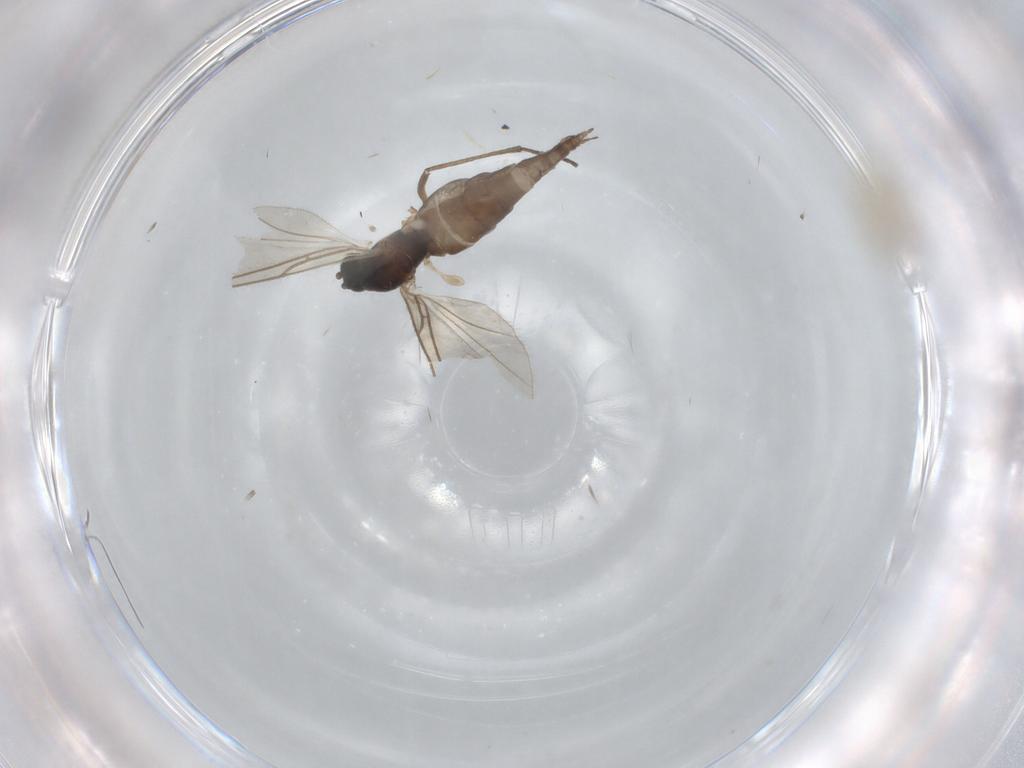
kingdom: Animalia
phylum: Arthropoda
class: Insecta
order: Diptera
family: Cecidomyiidae
